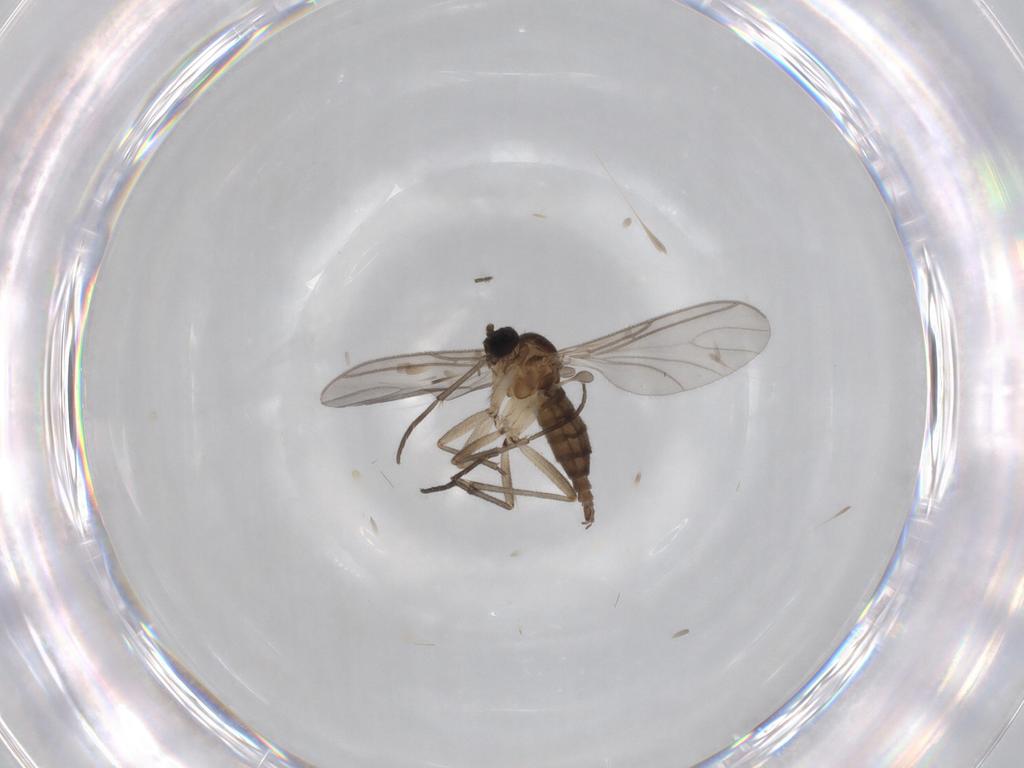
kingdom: Animalia
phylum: Arthropoda
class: Insecta
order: Diptera
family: Sciaridae
